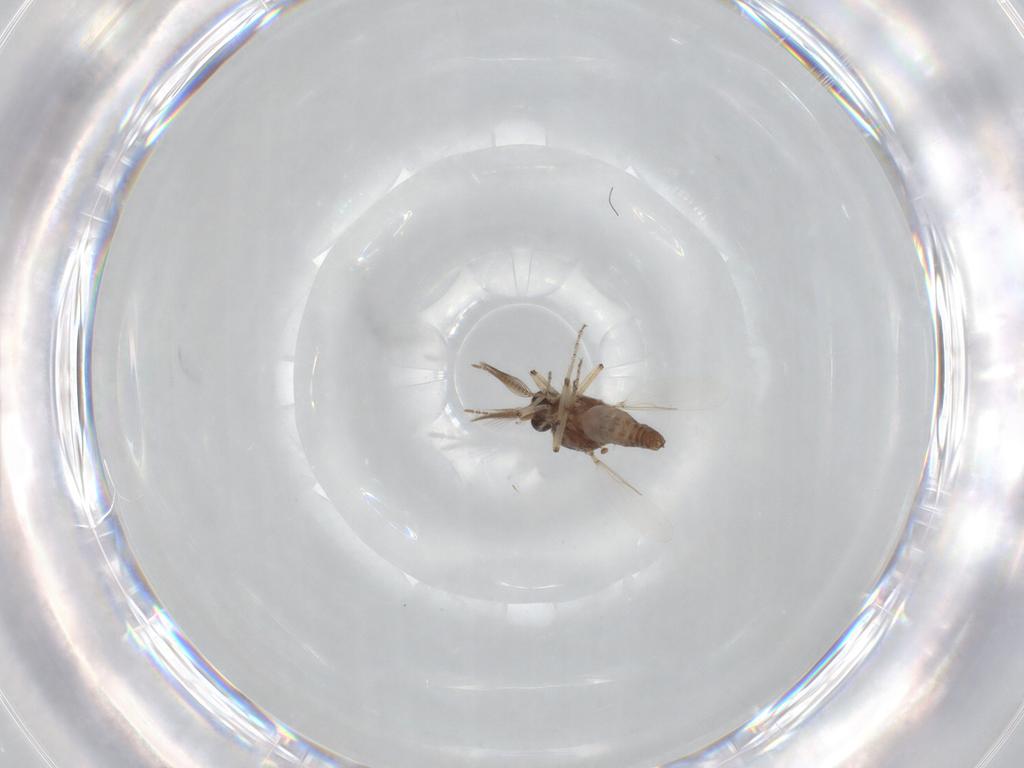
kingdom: Animalia
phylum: Arthropoda
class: Insecta
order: Diptera
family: Ceratopogonidae
